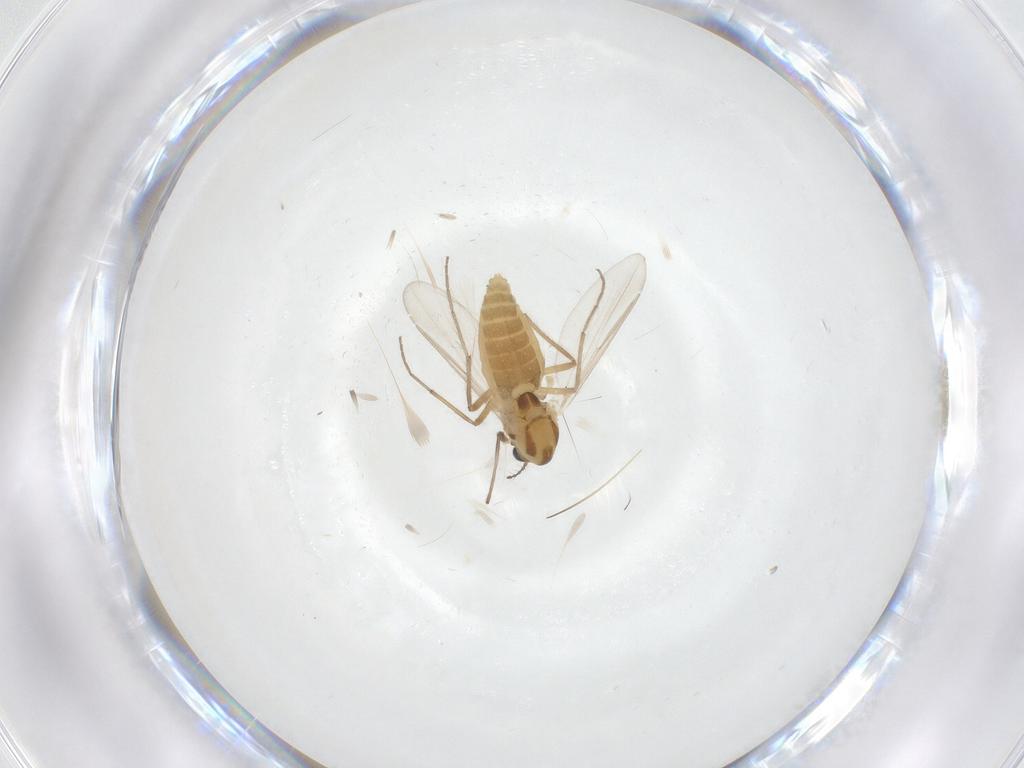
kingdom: Animalia
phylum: Arthropoda
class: Insecta
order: Diptera
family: Chironomidae
